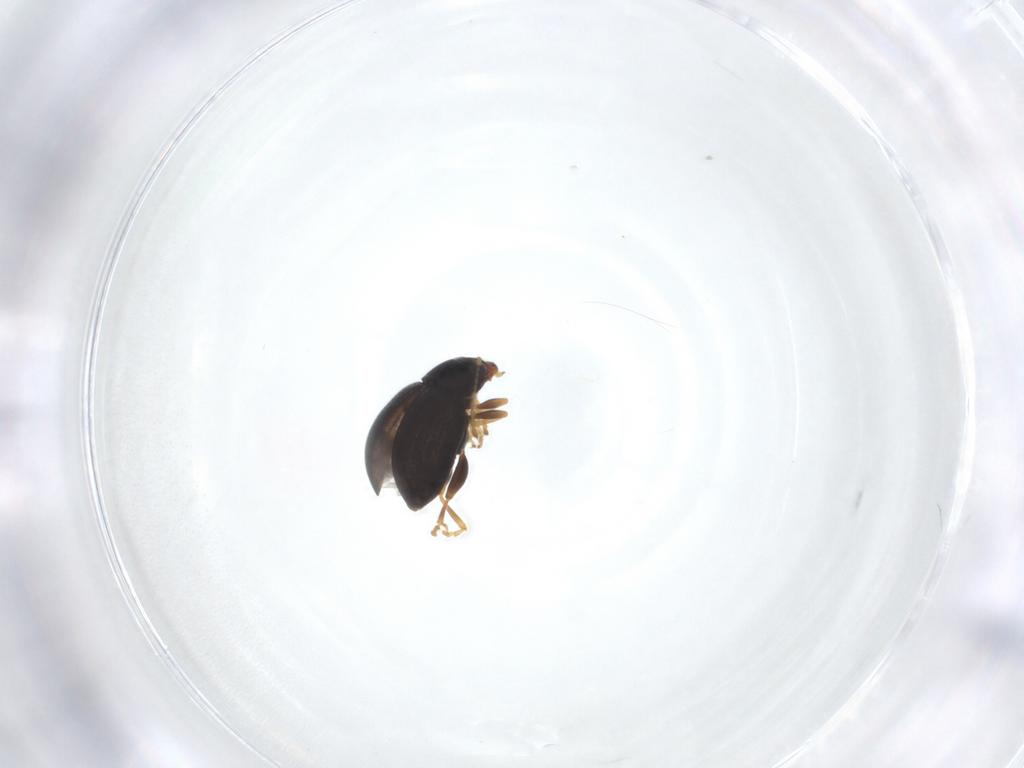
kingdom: Animalia
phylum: Arthropoda
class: Insecta
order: Coleoptera
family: Chrysomelidae
